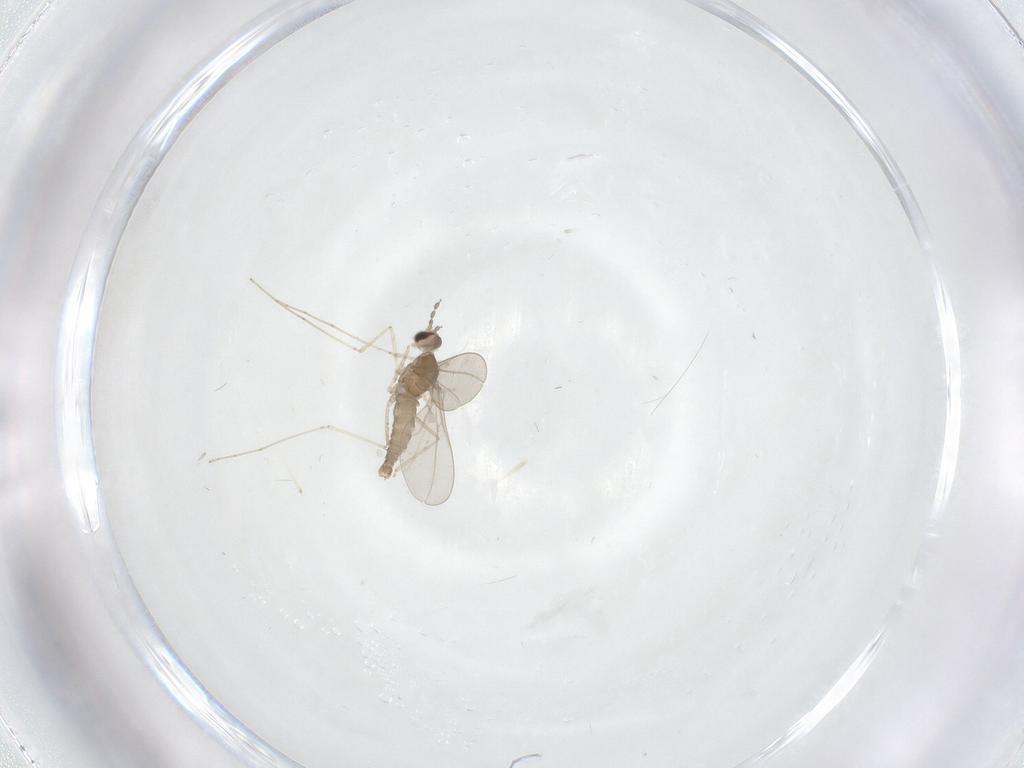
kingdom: Animalia
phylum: Arthropoda
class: Insecta
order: Diptera
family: Cecidomyiidae
